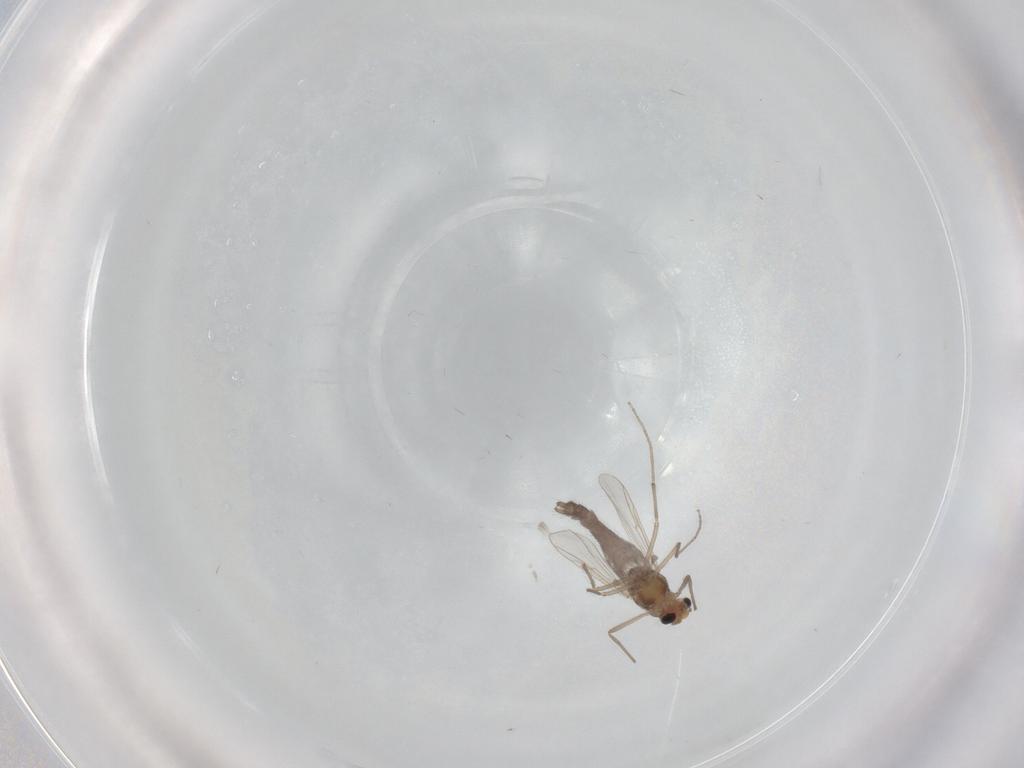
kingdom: Animalia
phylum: Arthropoda
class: Insecta
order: Diptera
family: Chironomidae
